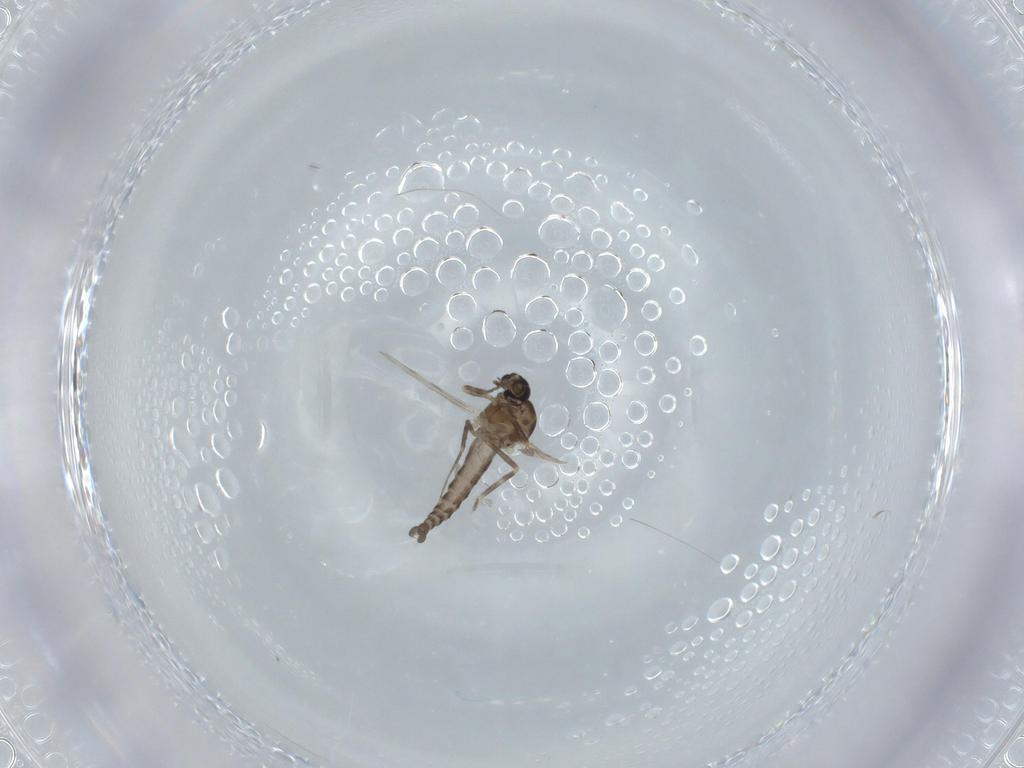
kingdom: Animalia
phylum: Arthropoda
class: Insecta
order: Diptera
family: Ceratopogonidae
